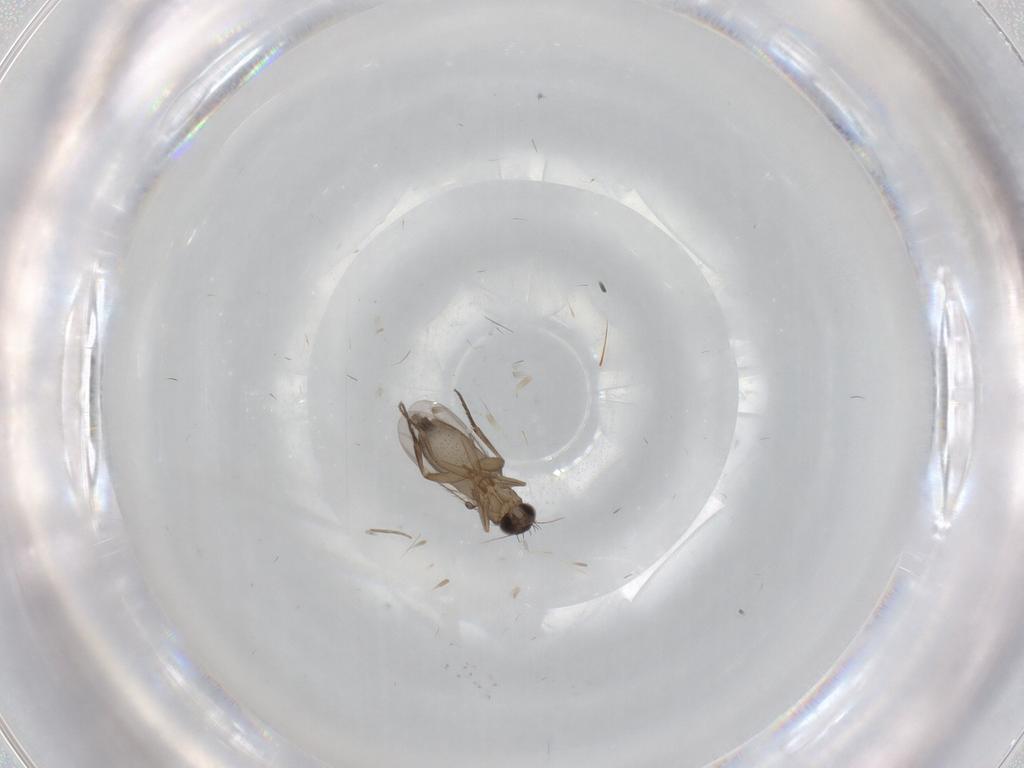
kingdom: Animalia
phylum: Arthropoda
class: Insecta
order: Diptera
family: Phoridae
